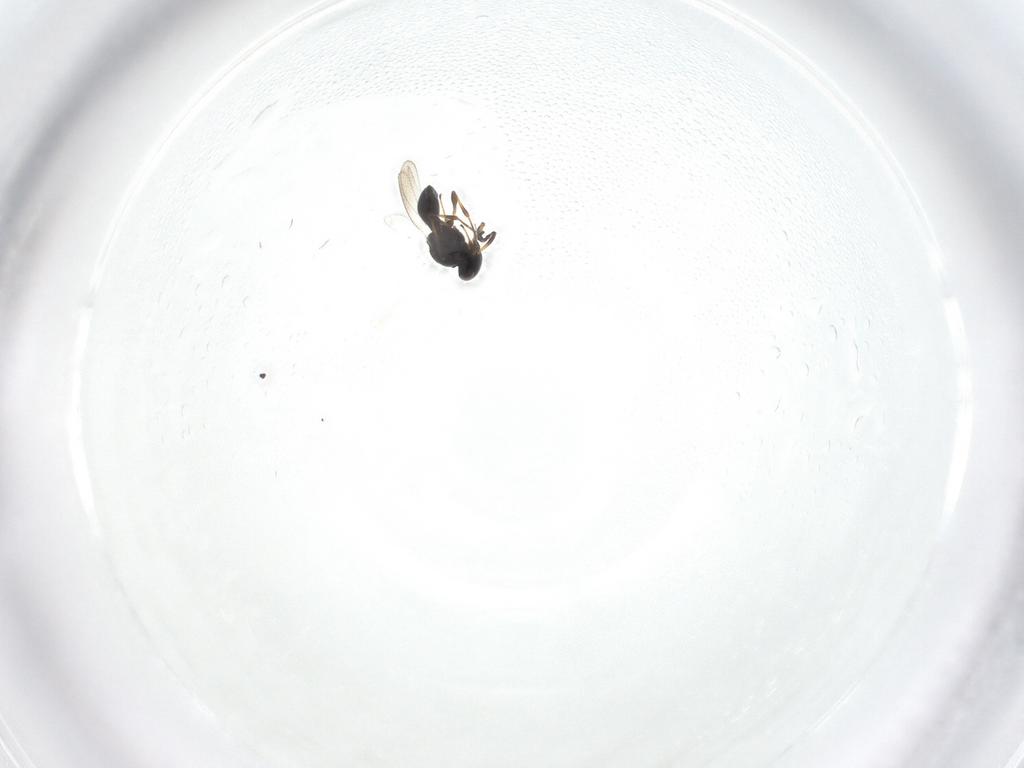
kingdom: Animalia
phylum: Arthropoda
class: Insecta
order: Hymenoptera
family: Platygastridae
